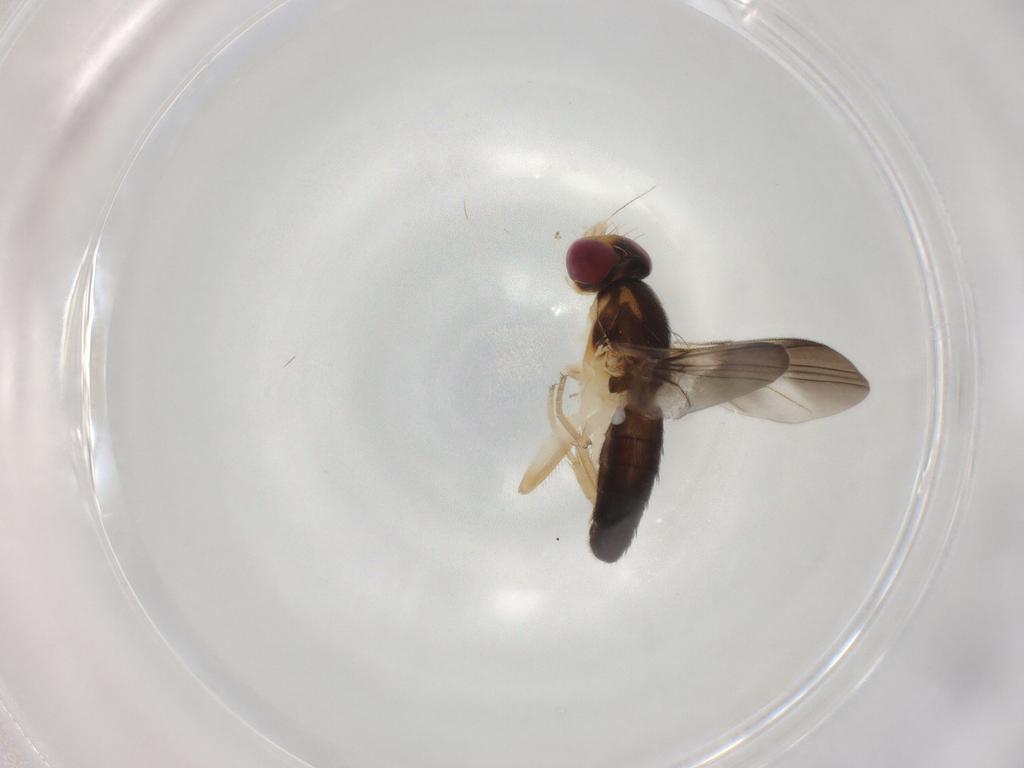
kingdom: Animalia
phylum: Arthropoda
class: Insecta
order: Diptera
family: Clusiidae
